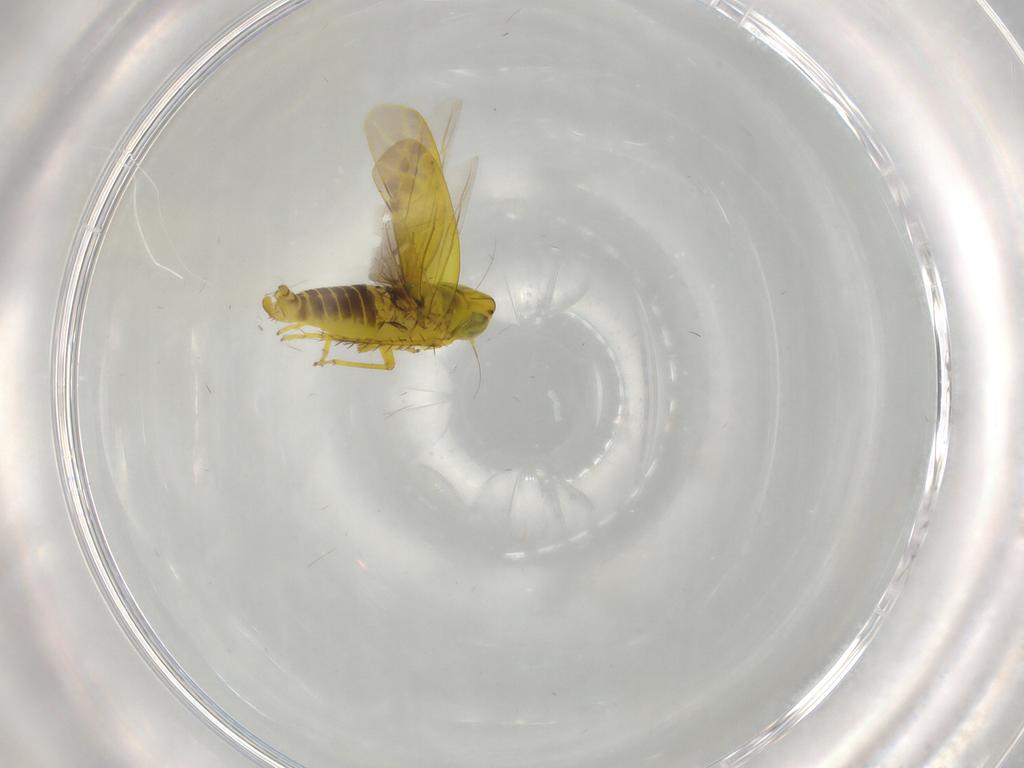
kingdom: Animalia
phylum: Arthropoda
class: Insecta
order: Hemiptera
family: Cicadellidae
